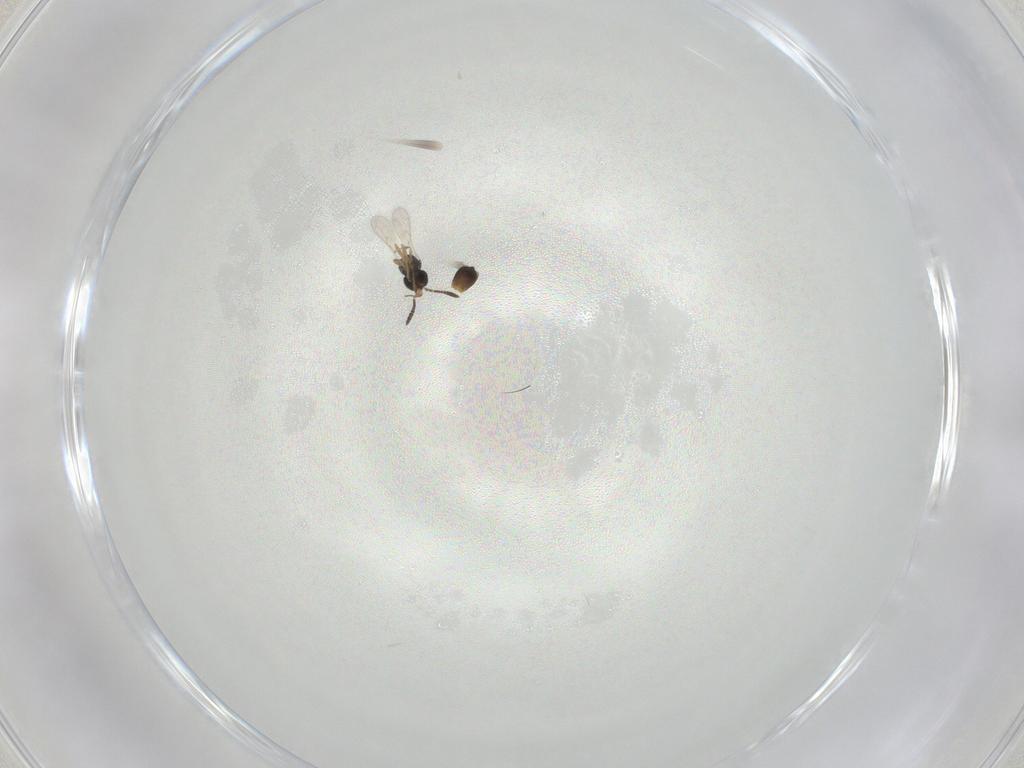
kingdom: Animalia
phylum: Arthropoda
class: Insecta
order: Hymenoptera
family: Scelionidae
